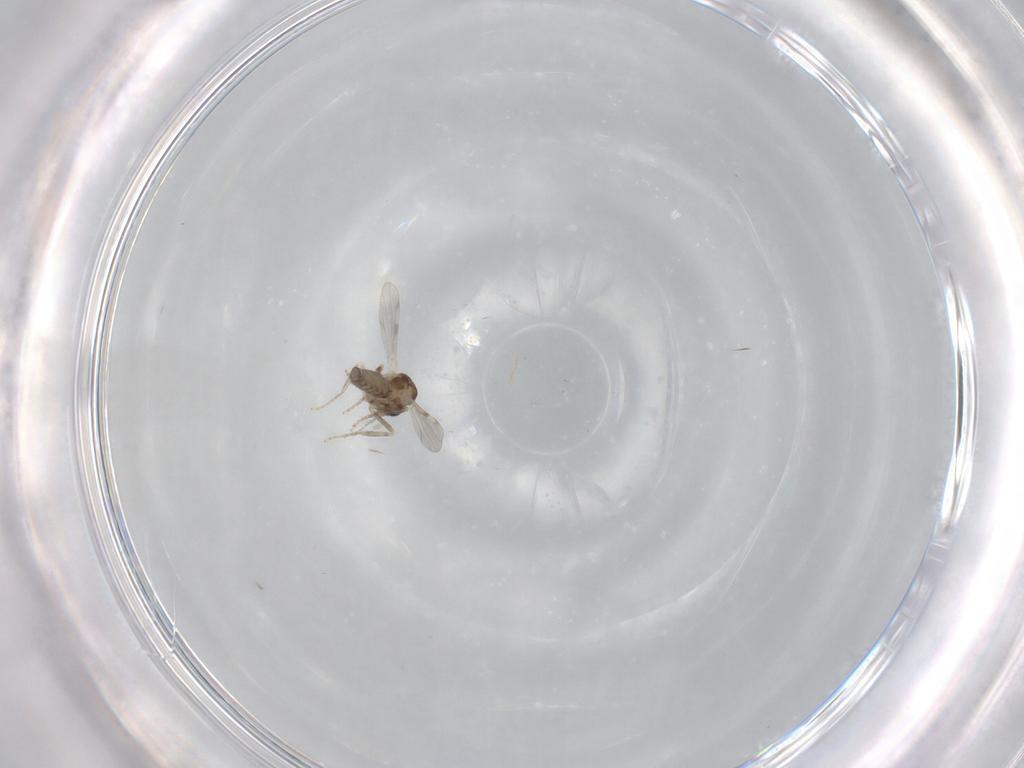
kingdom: Animalia
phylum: Arthropoda
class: Insecta
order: Diptera
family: Ceratopogonidae
